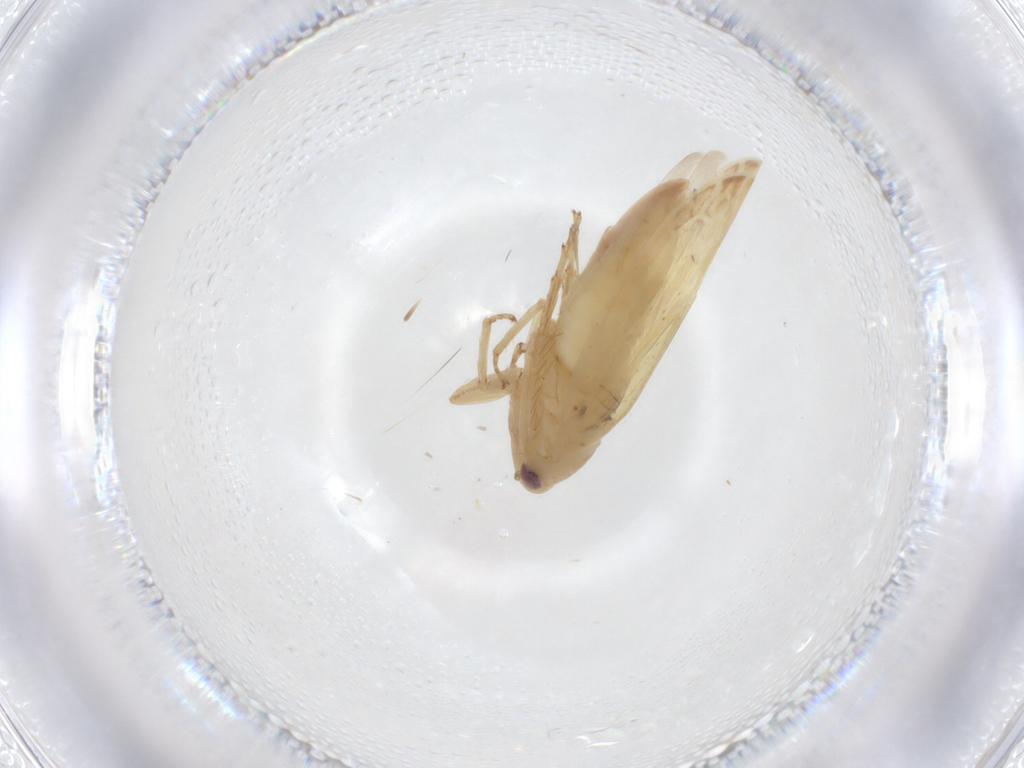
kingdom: Animalia
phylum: Arthropoda
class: Insecta
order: Hemiptera
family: Cicadellidae
